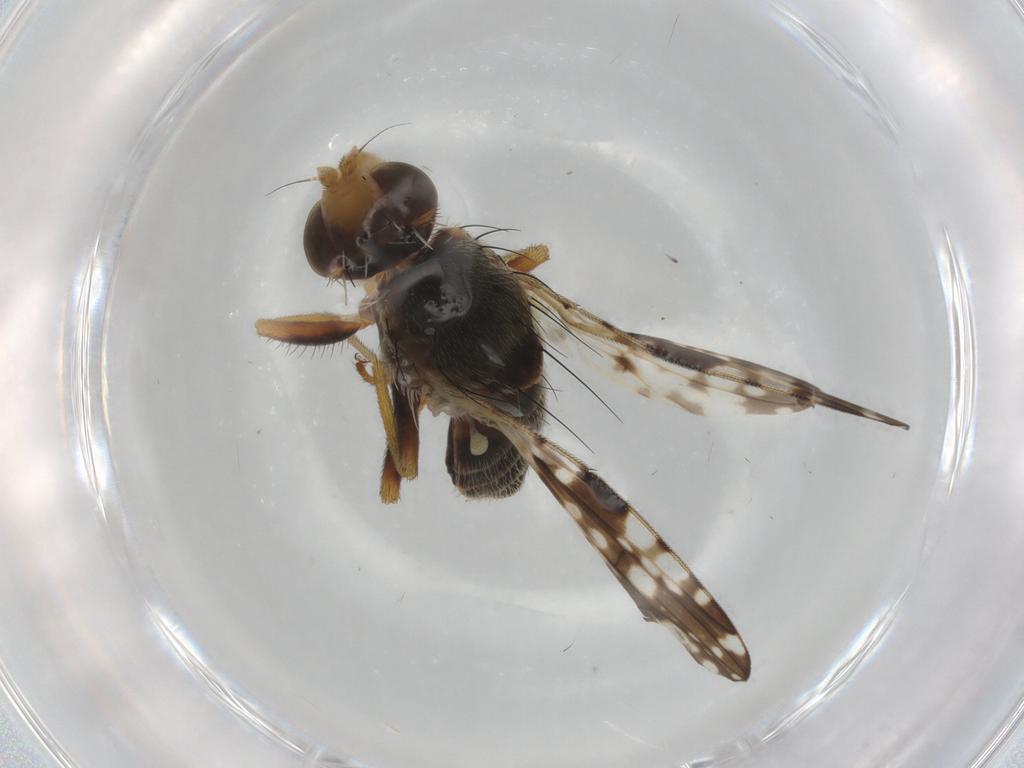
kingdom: Animalia
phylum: Arthropoda
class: Insecta
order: Diptera
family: Tephritidae
